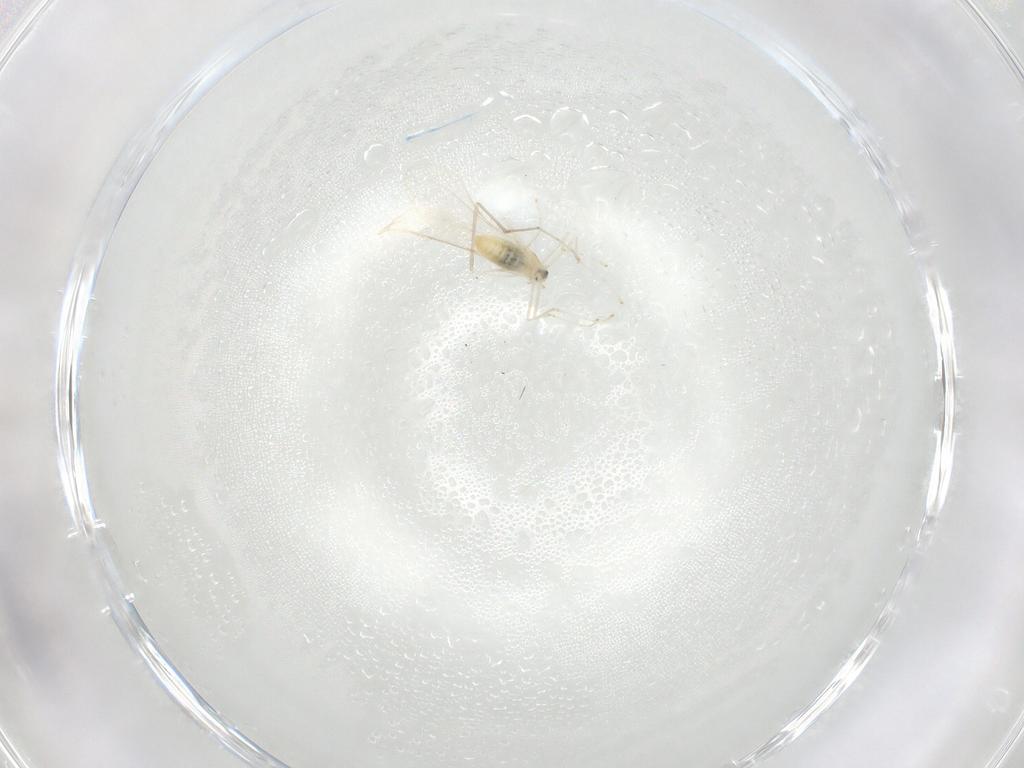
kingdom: Animalia
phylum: Arthropoda
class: Insecta
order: Diptera
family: Cecidomyiidae
